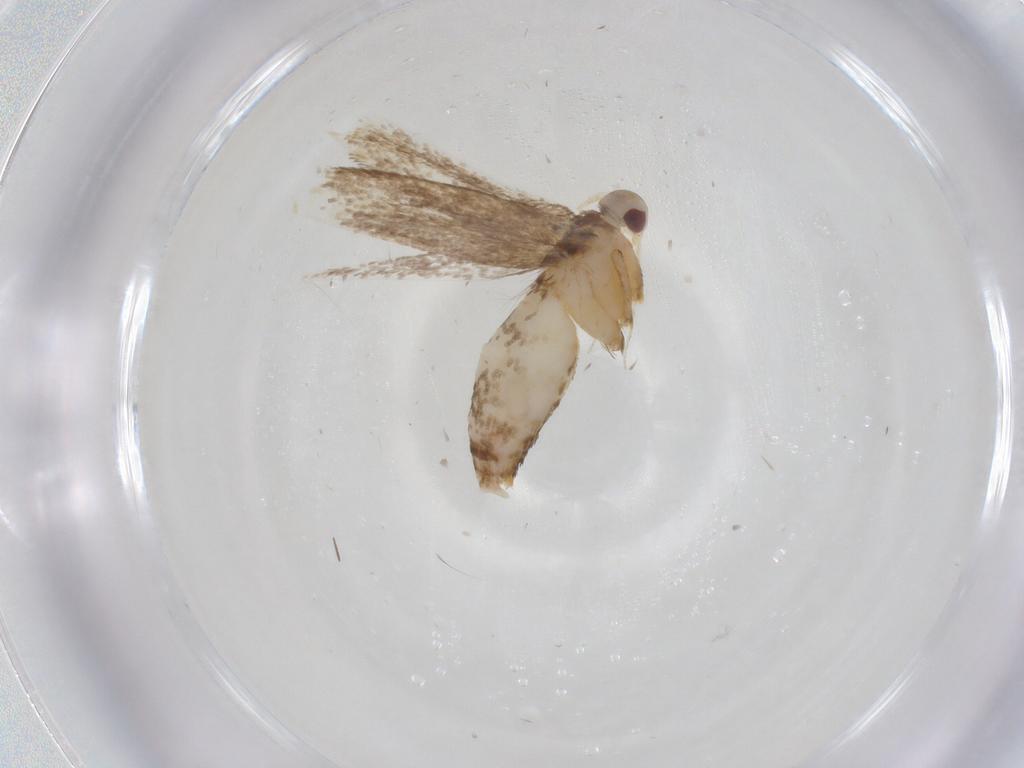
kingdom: Animalia
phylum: Arthropoda
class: Insecta
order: Lepidoptera
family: Cosmopterigidae
